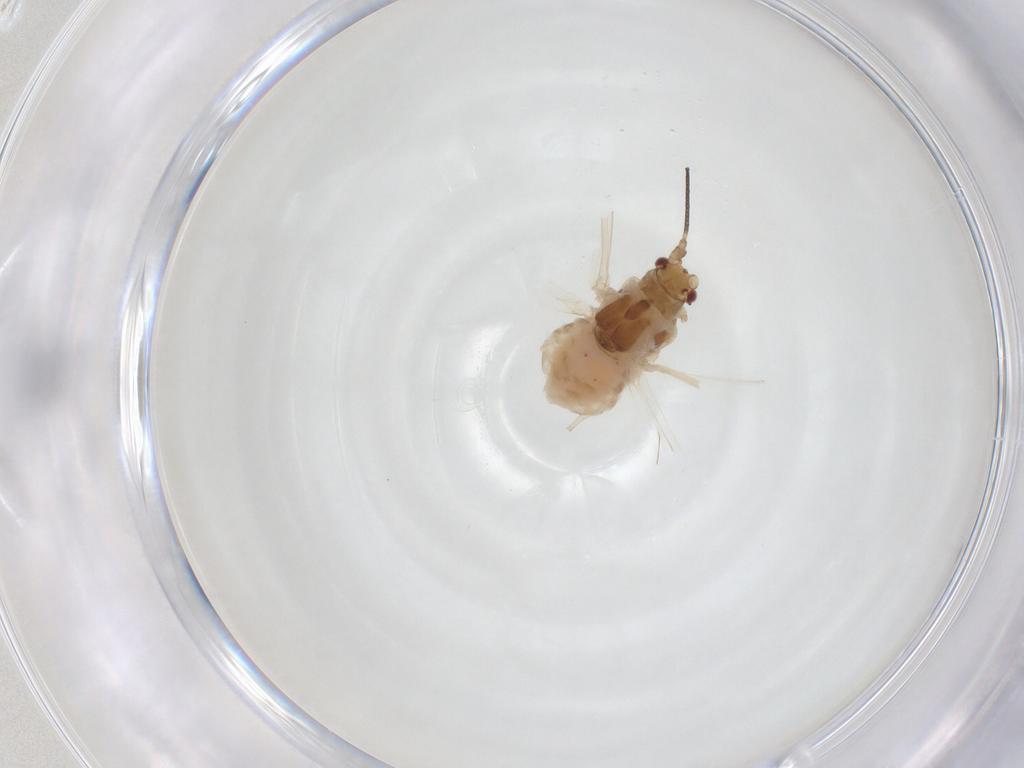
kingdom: Animalia
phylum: Arthropoda
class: Insecta
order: Hemiptera
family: Aphididae
